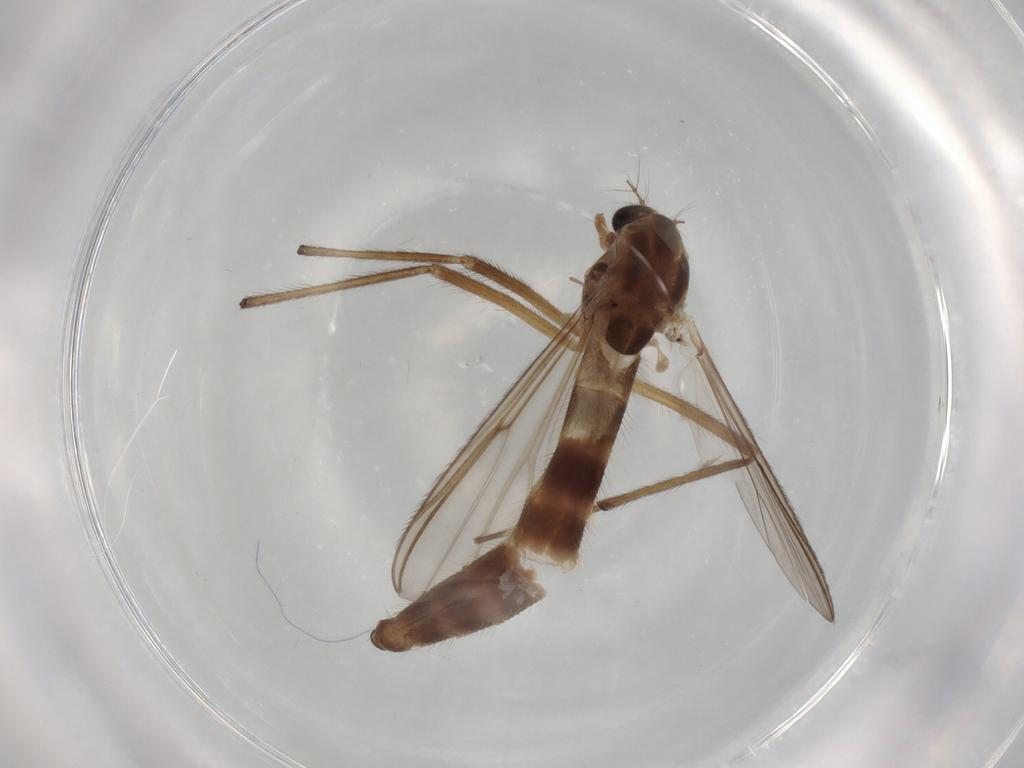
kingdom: Animalia
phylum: Arthropoda
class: Insecta
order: Diptera
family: Chironomidae
